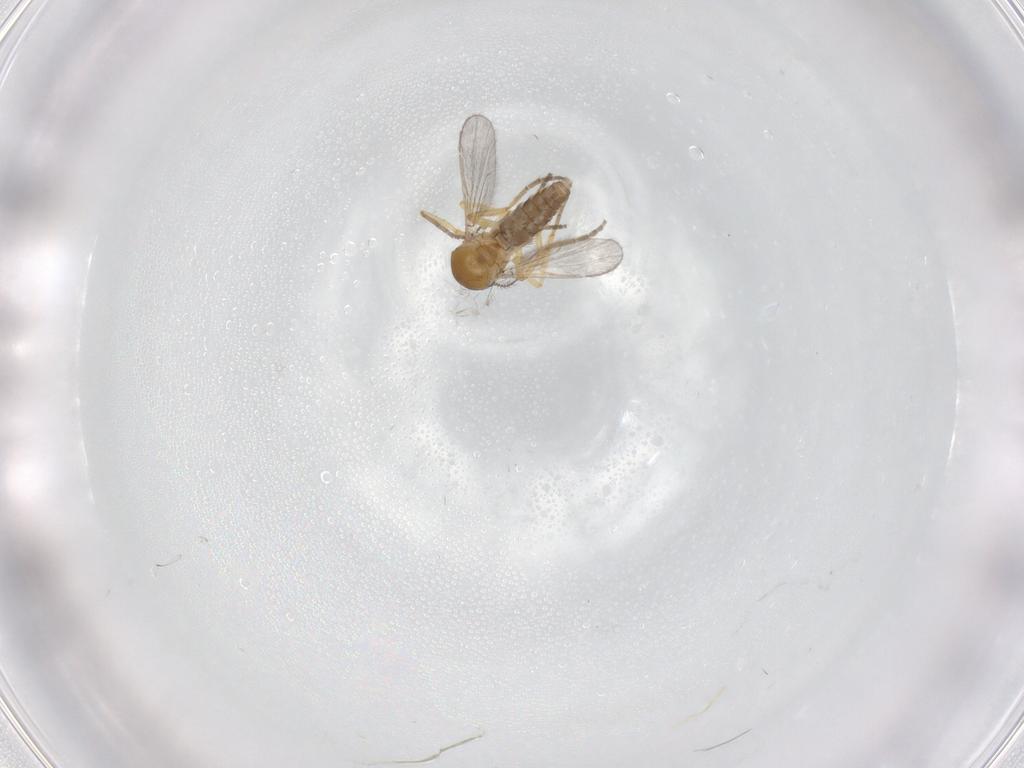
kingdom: Animalia
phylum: Arthropoda
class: Insecta
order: Diptera
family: Ceratopogonidae
